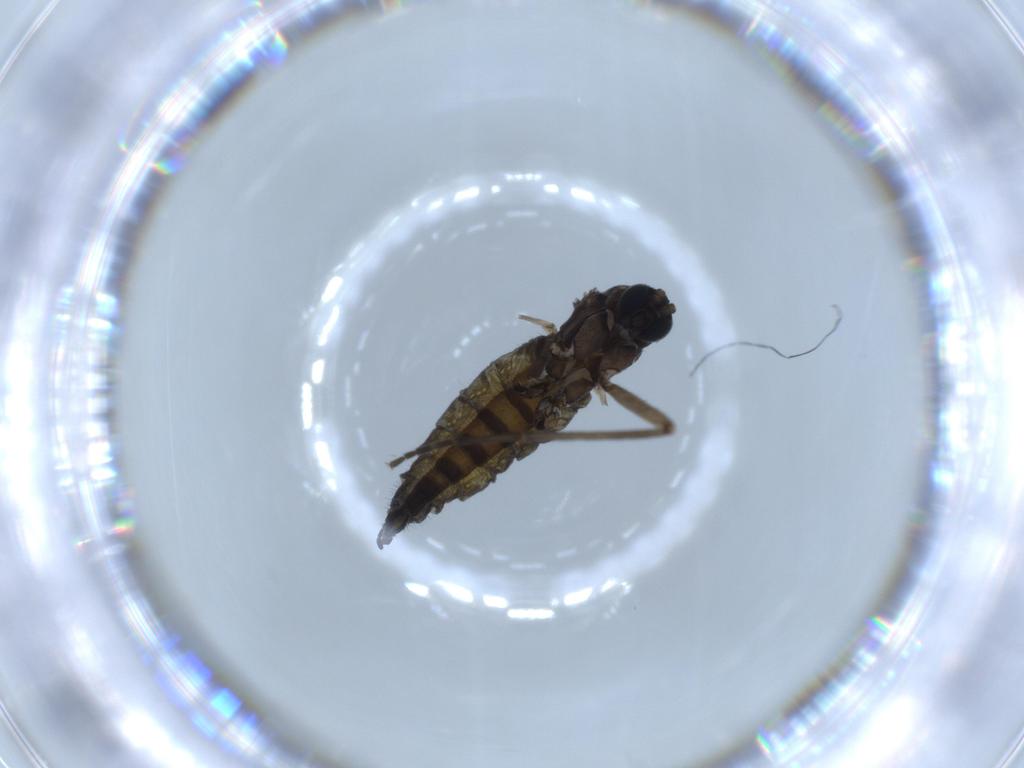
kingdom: Animalia
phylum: Arthropoda
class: Insecta
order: Diptera
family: Sciaridae
